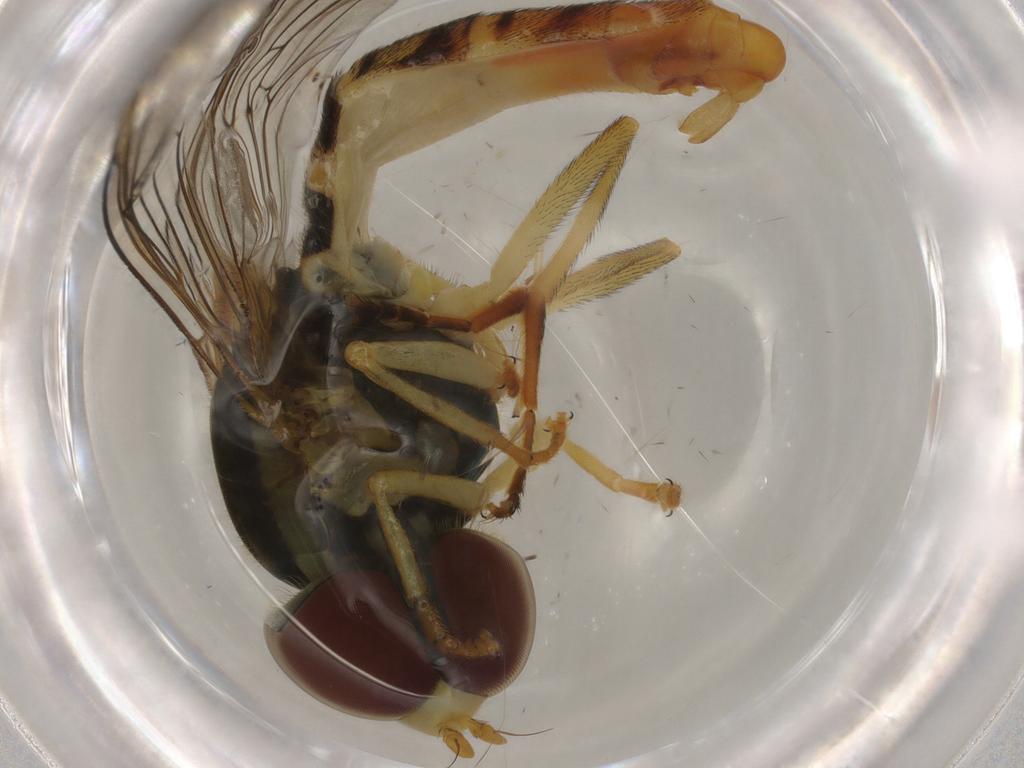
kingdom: Animalia
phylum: Arthropoda
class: Insecta
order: Diptera
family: Syrphidae
